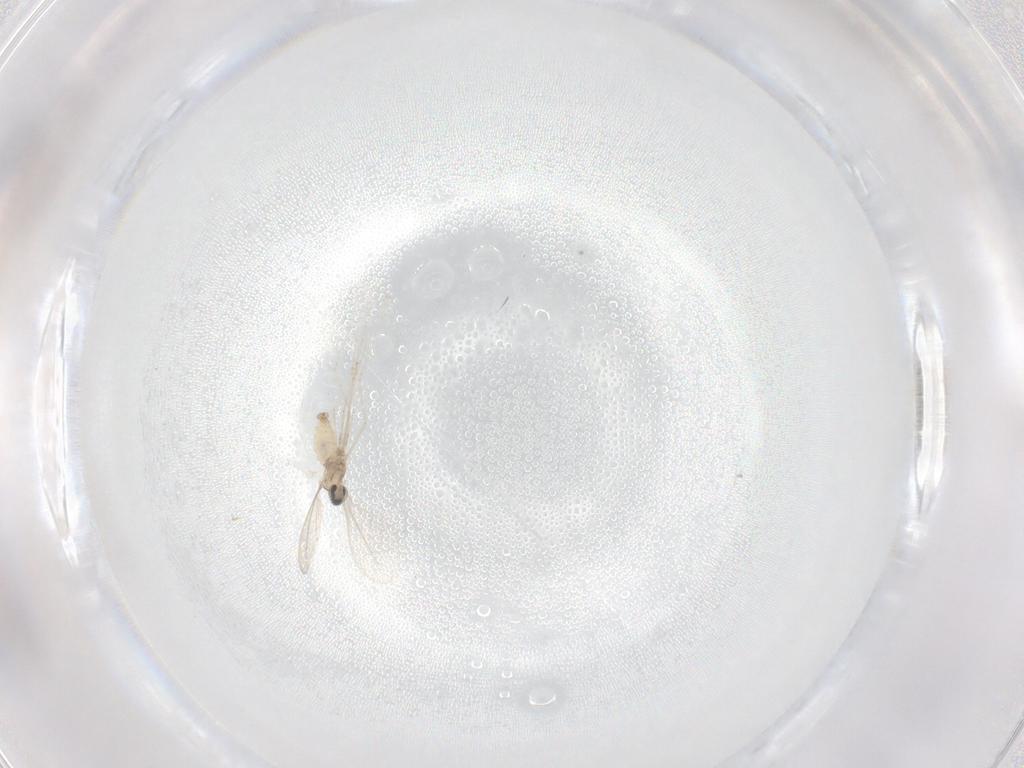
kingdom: Animalia
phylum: Arthropoda
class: Insecta
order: Diptera
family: Cecidomyiidae
